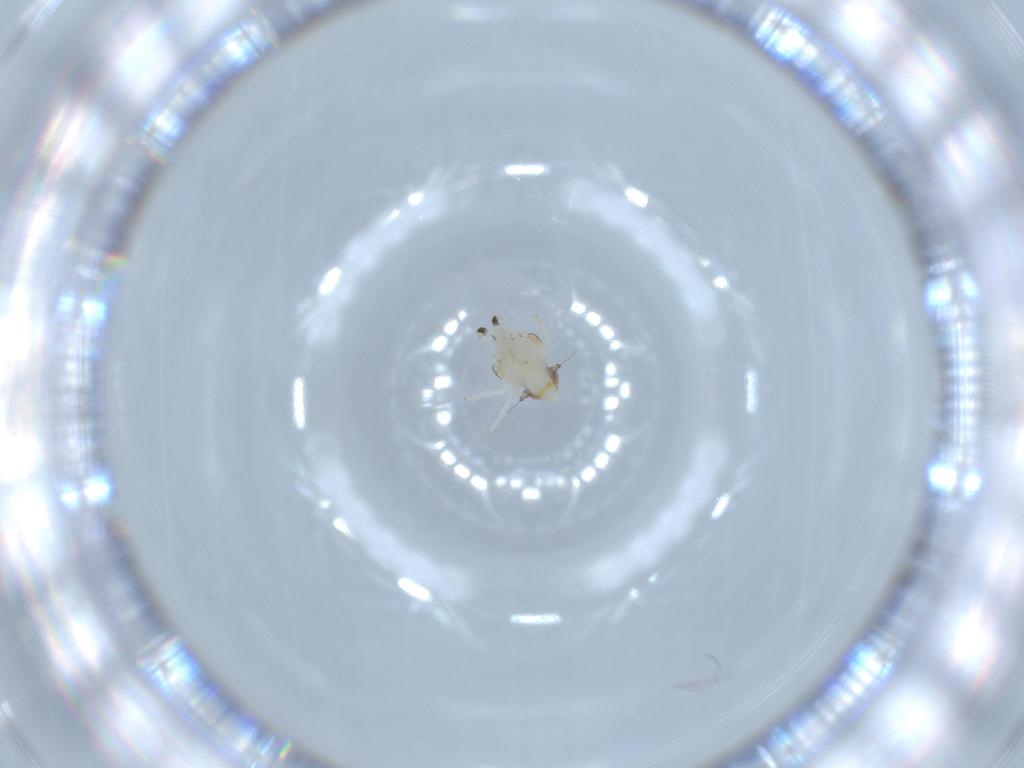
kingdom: Animalia
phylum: Arthropoda
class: Insecta
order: Hemiptera
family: Nogodinidae
